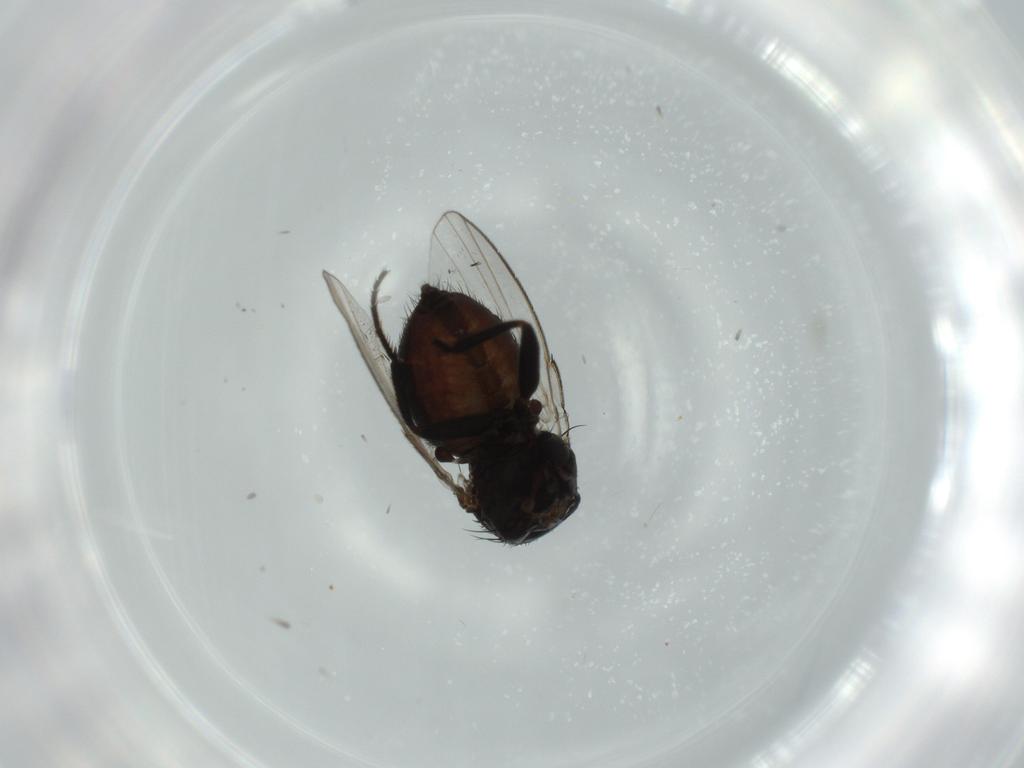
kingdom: Animalia
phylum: Arthropoda
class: Insecta
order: Diptera
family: Milichiidae
